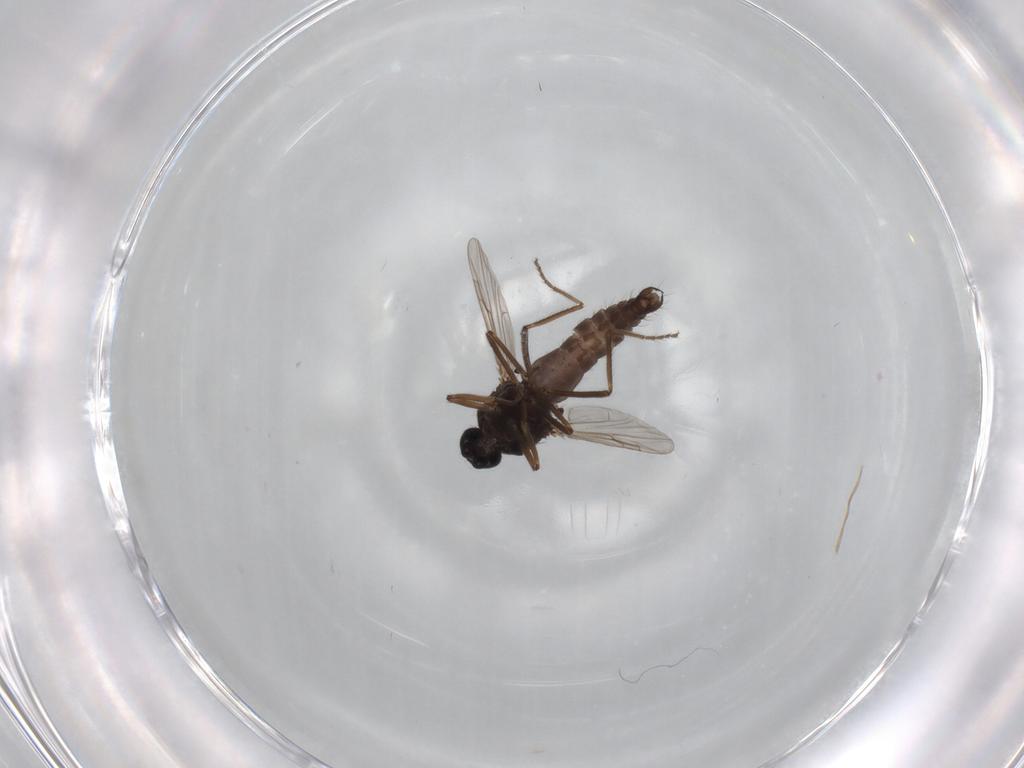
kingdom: Animalia
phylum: Arthropoda
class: Insecta
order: Diptera
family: Ceratopogonidae
